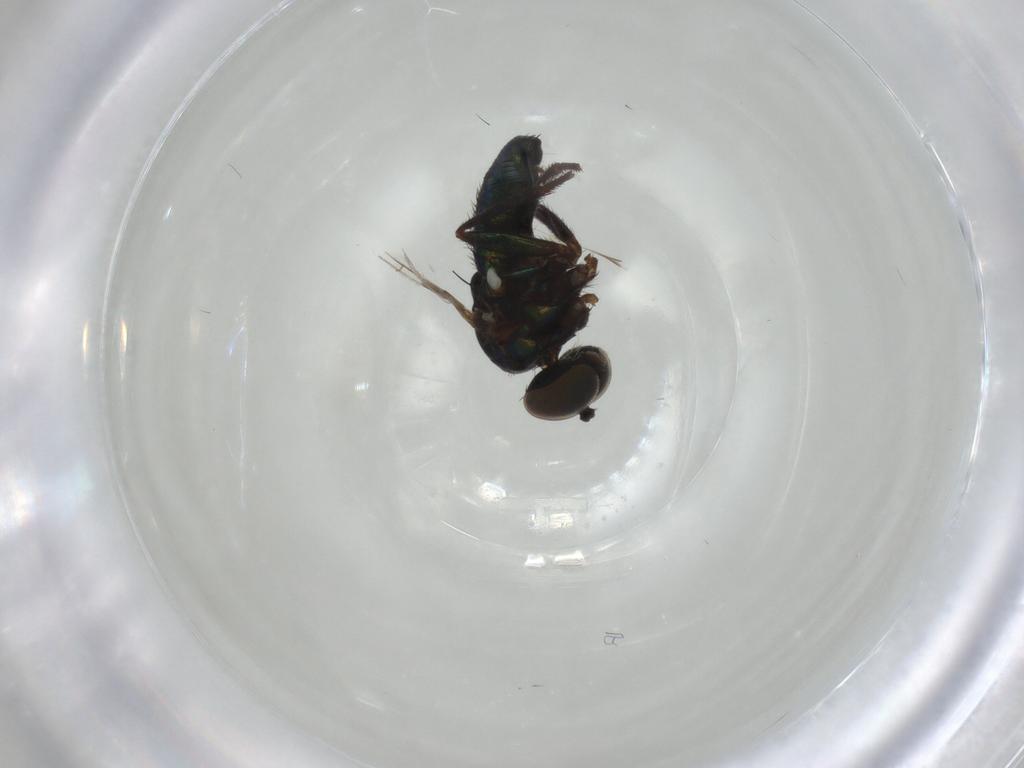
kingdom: Animalia
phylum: Arthropoda
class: Insecta
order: Diptera
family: Dolichopodidae
